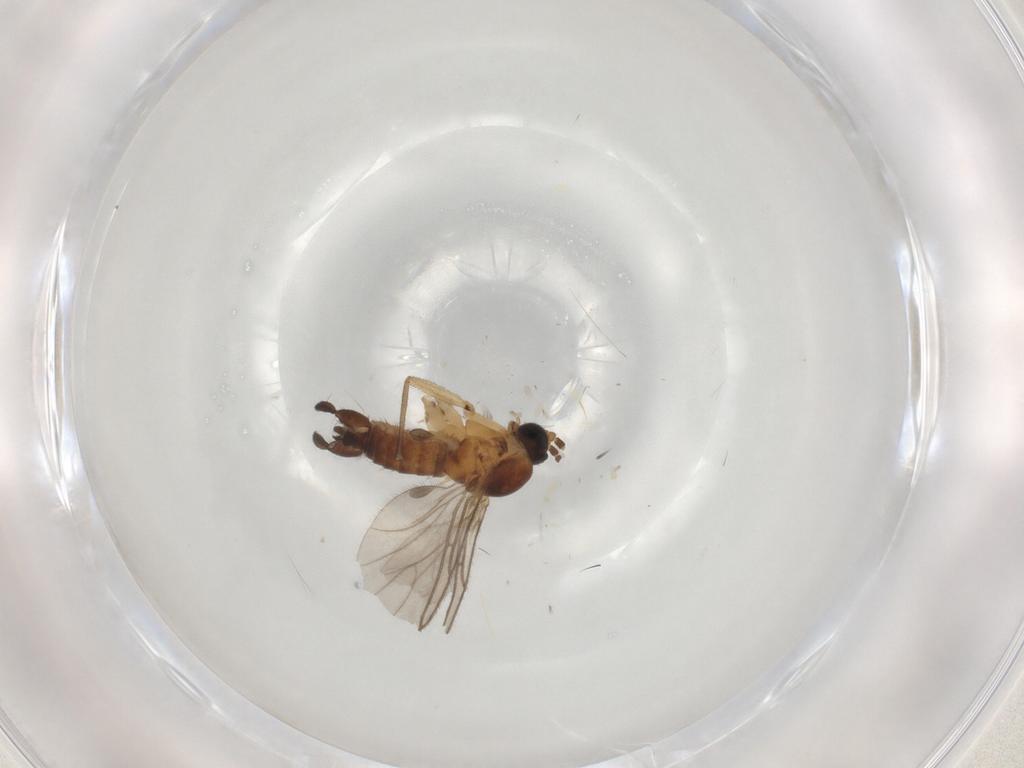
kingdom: Animalia
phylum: Arthropoda
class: Insecta
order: Diptera
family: Sciaridae
